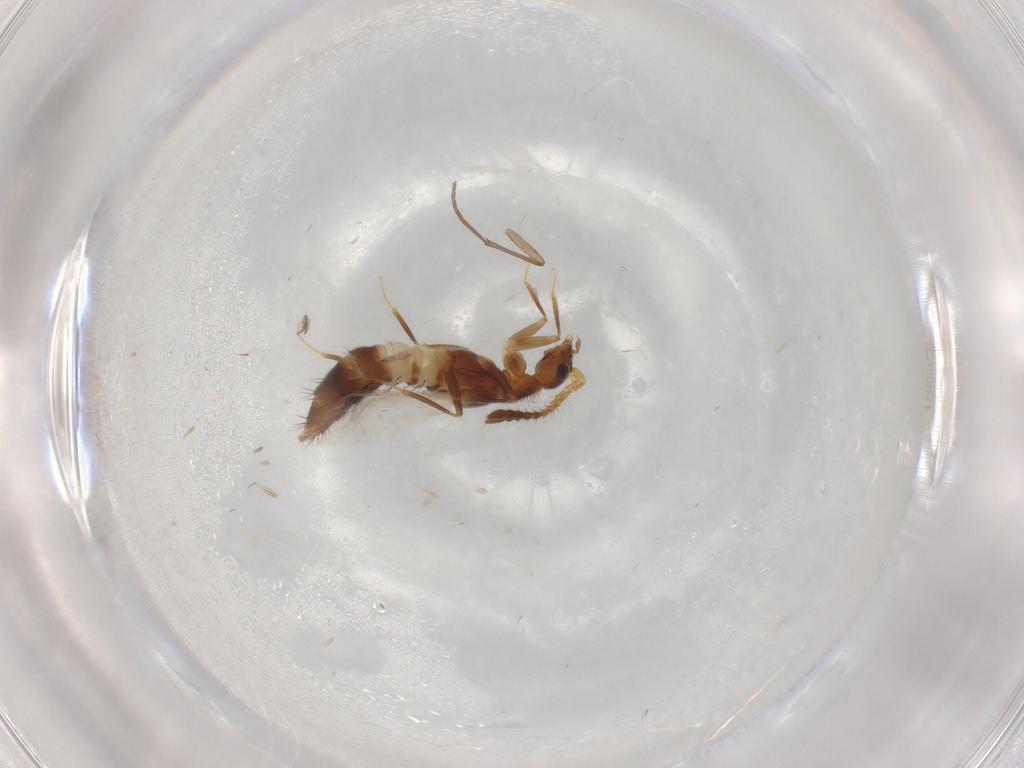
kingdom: Animalia
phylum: Arthropoda
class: Insecta
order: Coleoptera
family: Staphylinidae
